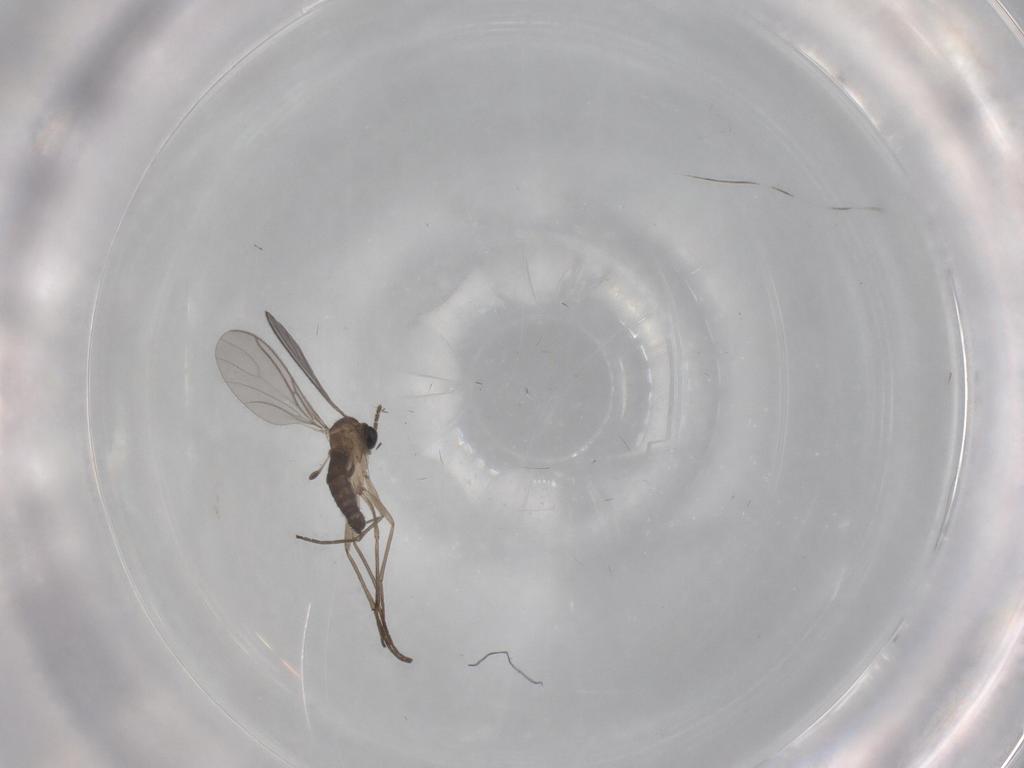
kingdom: Animalia
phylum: Arthropoda
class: Insecta
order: Diptera
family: Sciaridae
